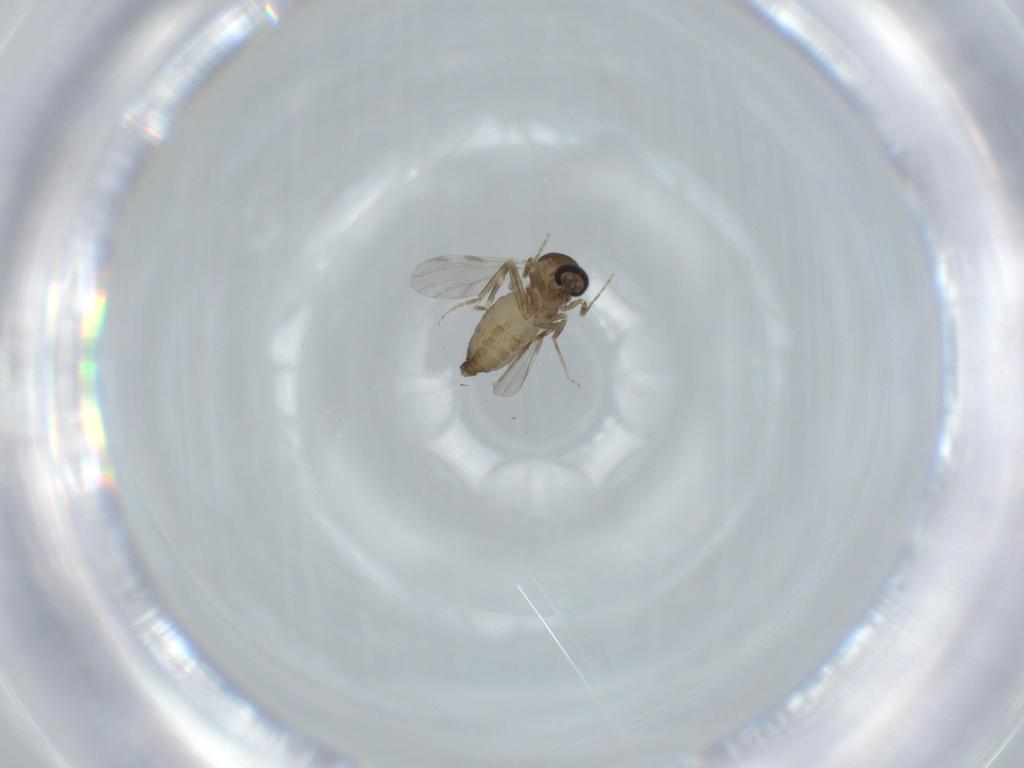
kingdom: Animalia
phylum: Arthropoda
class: Insecta
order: Diptera
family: Ceratopogonidae
